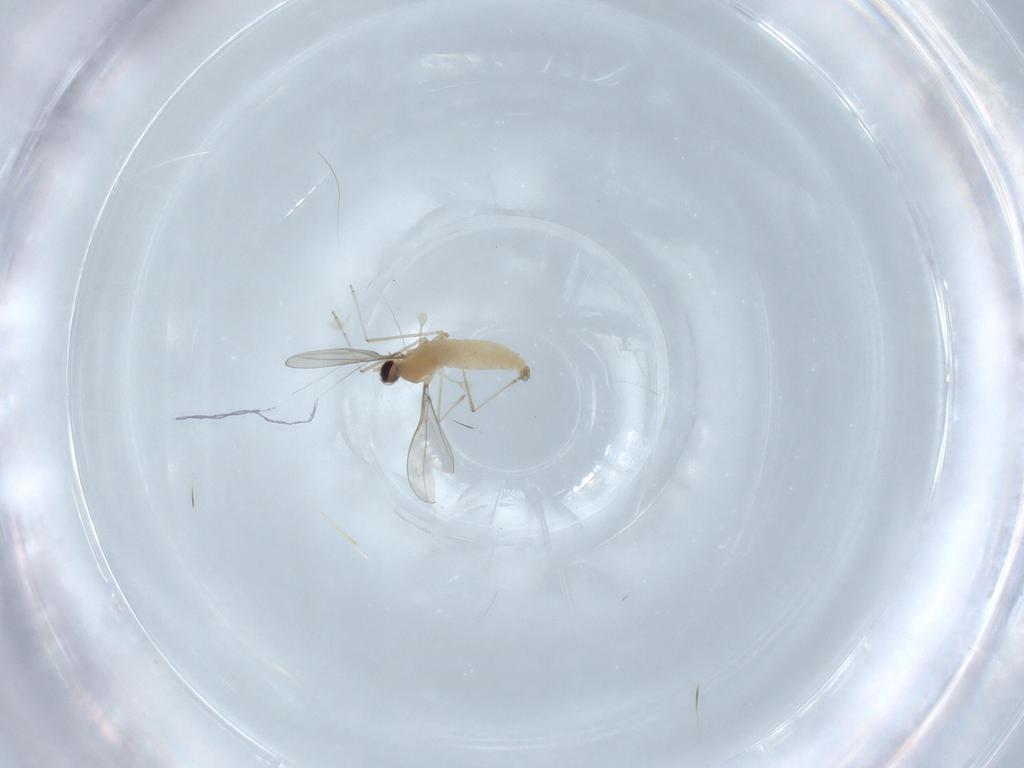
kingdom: Animalia
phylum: Arthropoda
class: Insecta
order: Diptera
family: Cecidomyiidae
